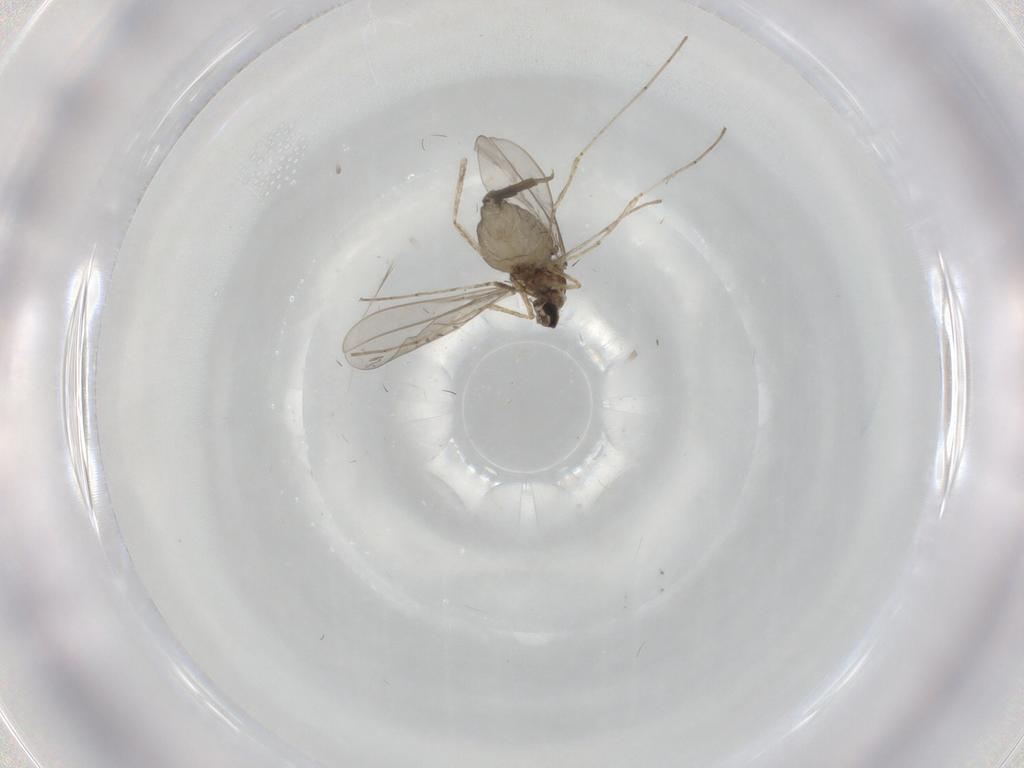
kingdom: Animalia
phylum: Arthropoda
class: Insecta
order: Diptera
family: Cecidomyiidae
